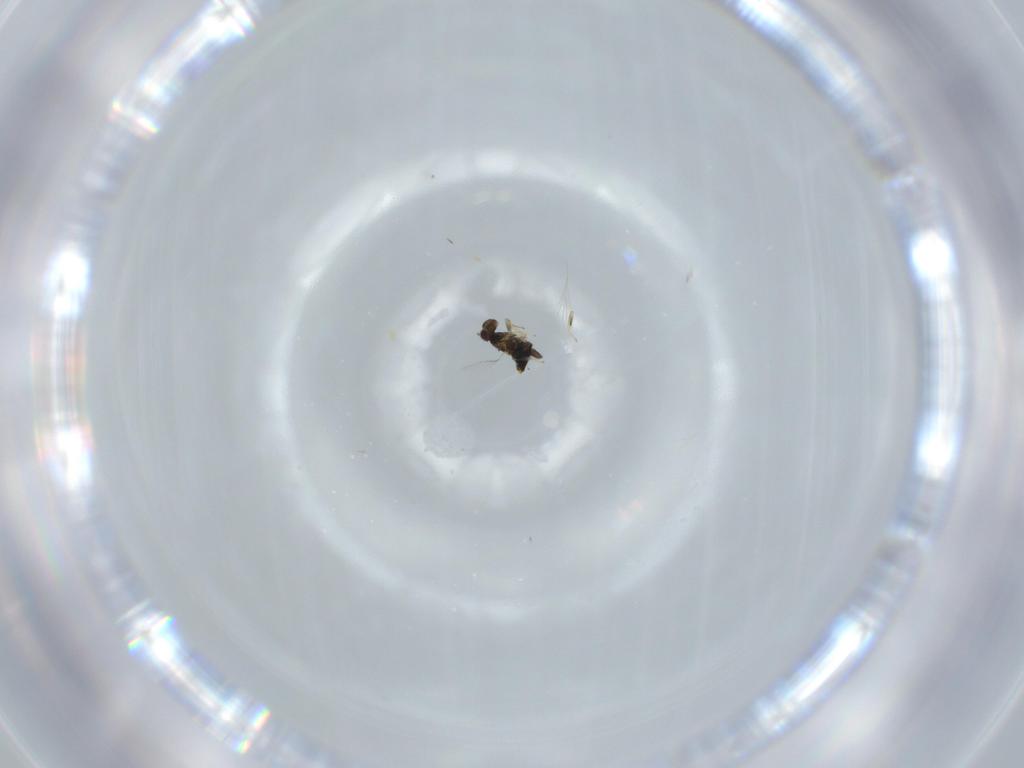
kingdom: Animalia
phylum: Arthropoda
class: Insecta
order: Hymenoptera
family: Aphelinidae
